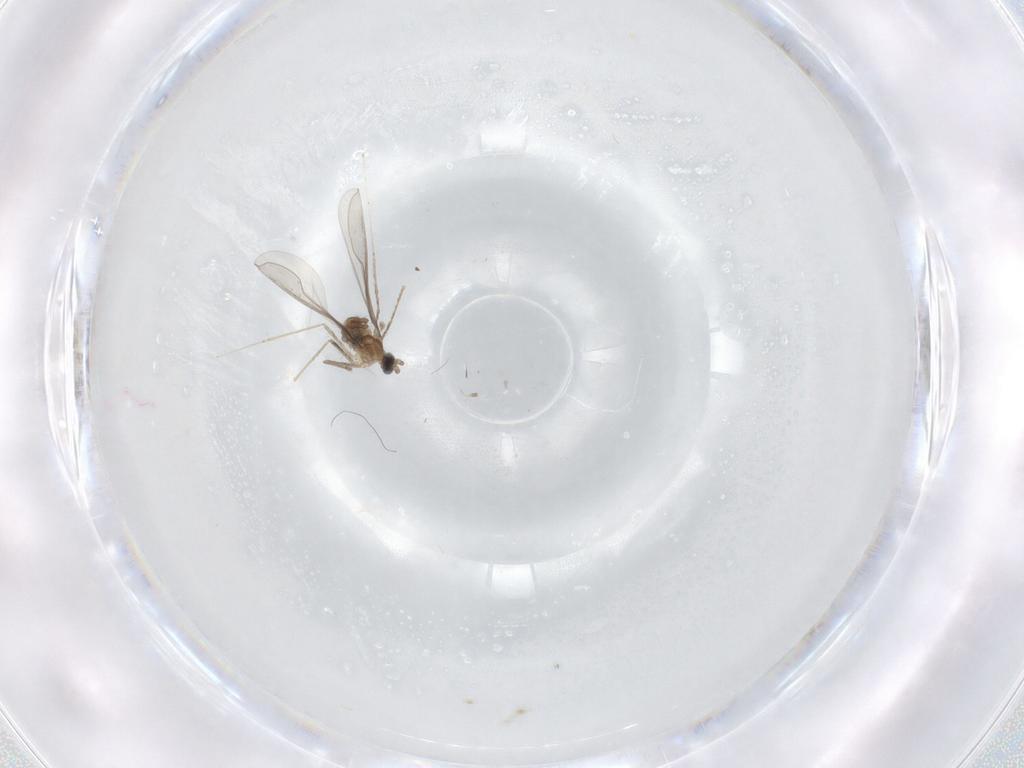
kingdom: Animalia
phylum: Arthropoda
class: Insecta
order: Diptera
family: Cecidomyiidae
